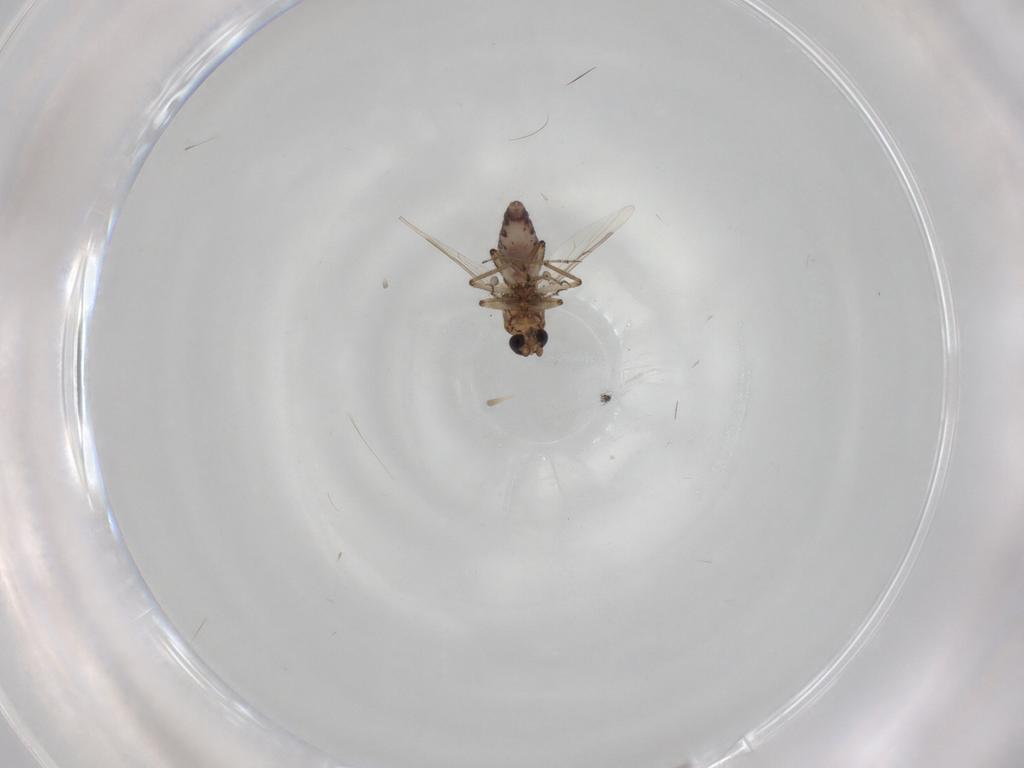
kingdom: Animalia
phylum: Arthropoda
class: Insecta
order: Diptera
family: Ceratopogonidae
